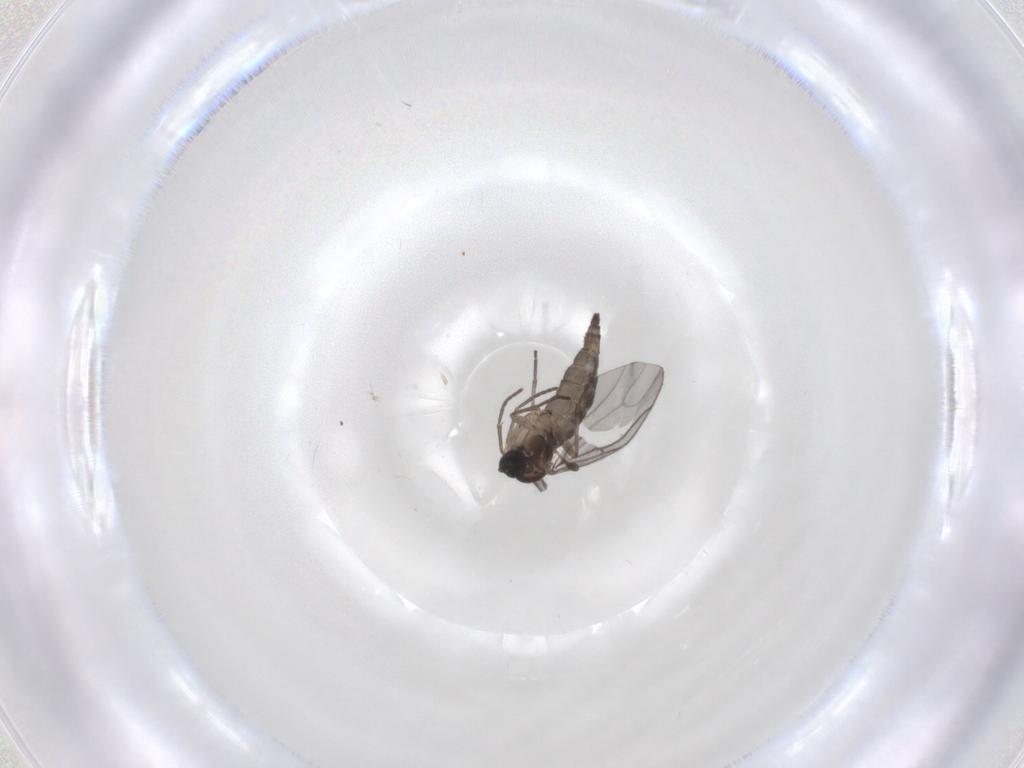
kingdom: Animalia
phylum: Arthropoda
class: Insecta
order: Diptera
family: Sciaridae
